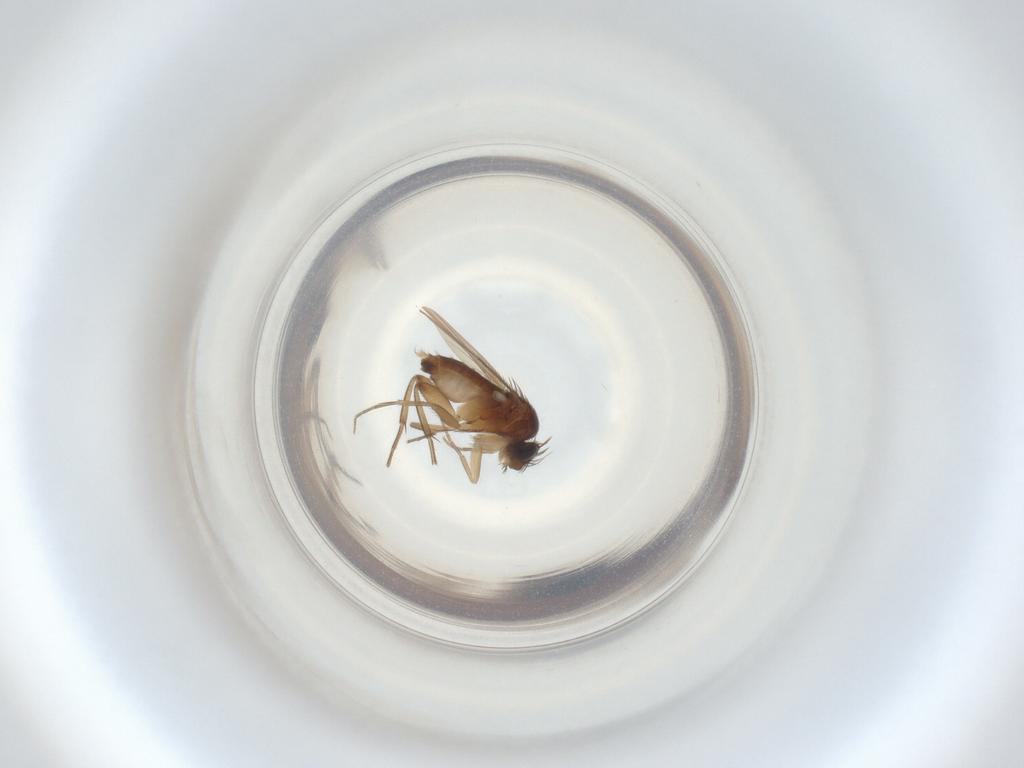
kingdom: Animalia
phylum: Arthropoda
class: Insecta
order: Diptera
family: Phoridae
